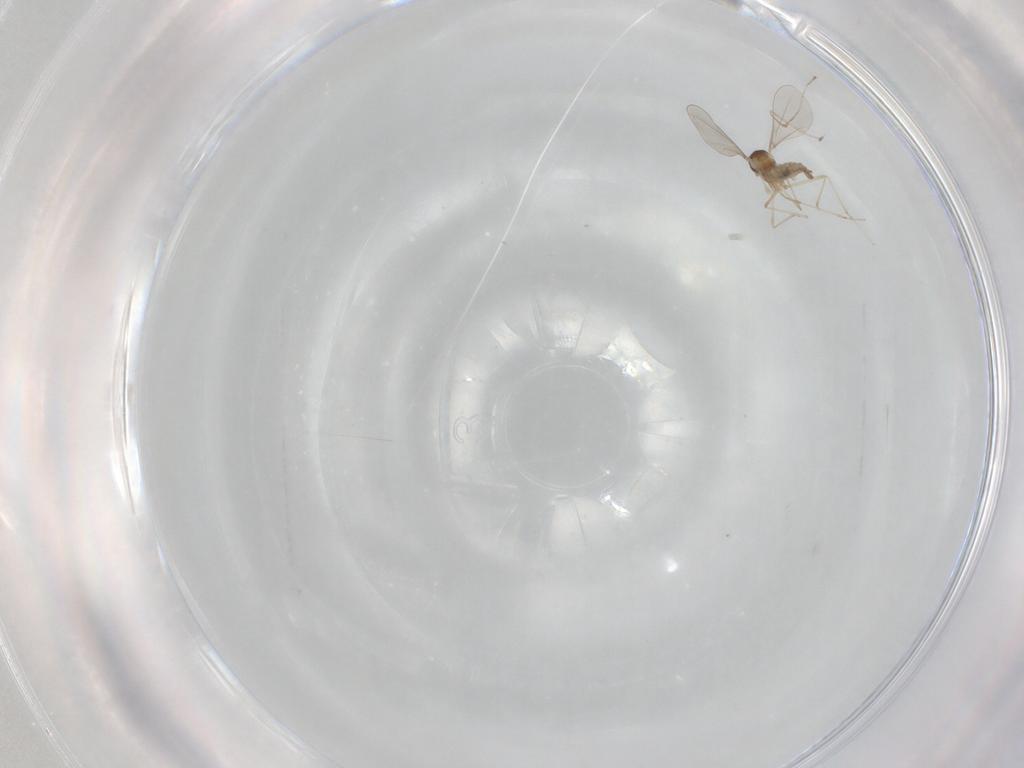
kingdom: Animalia
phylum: Arthropoda
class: Insecta
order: Diptera
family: Cecidomyiidae
